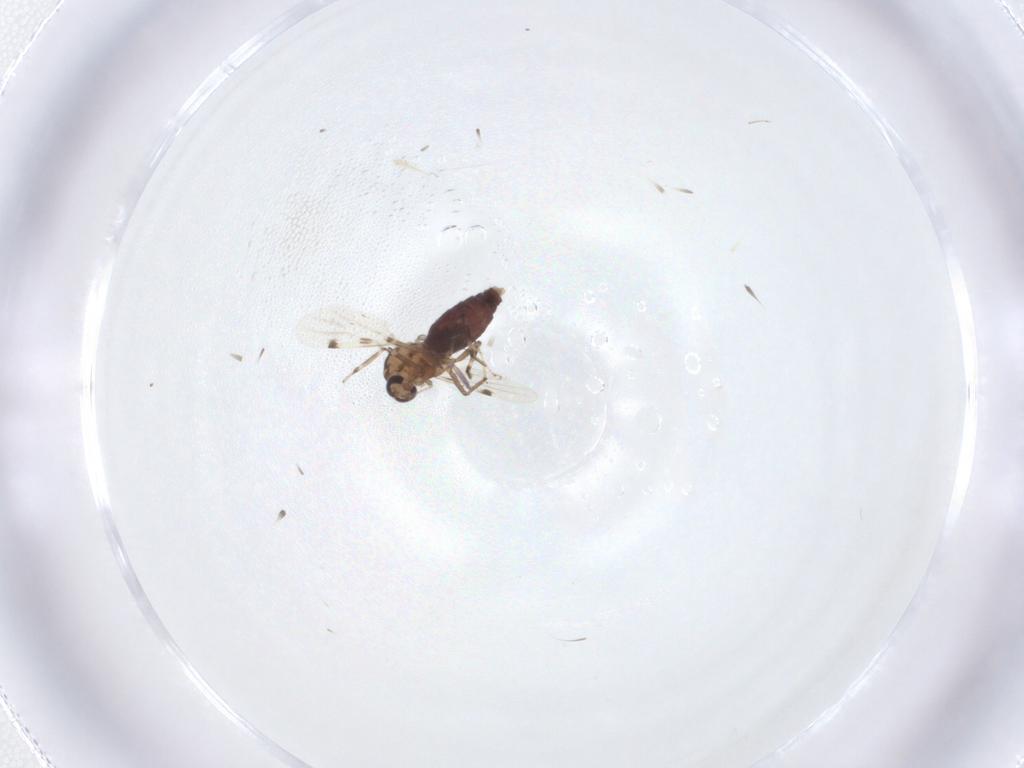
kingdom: Animalia
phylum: Arthropoda
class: Insecta
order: Diptera
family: Ceratopogonidae
